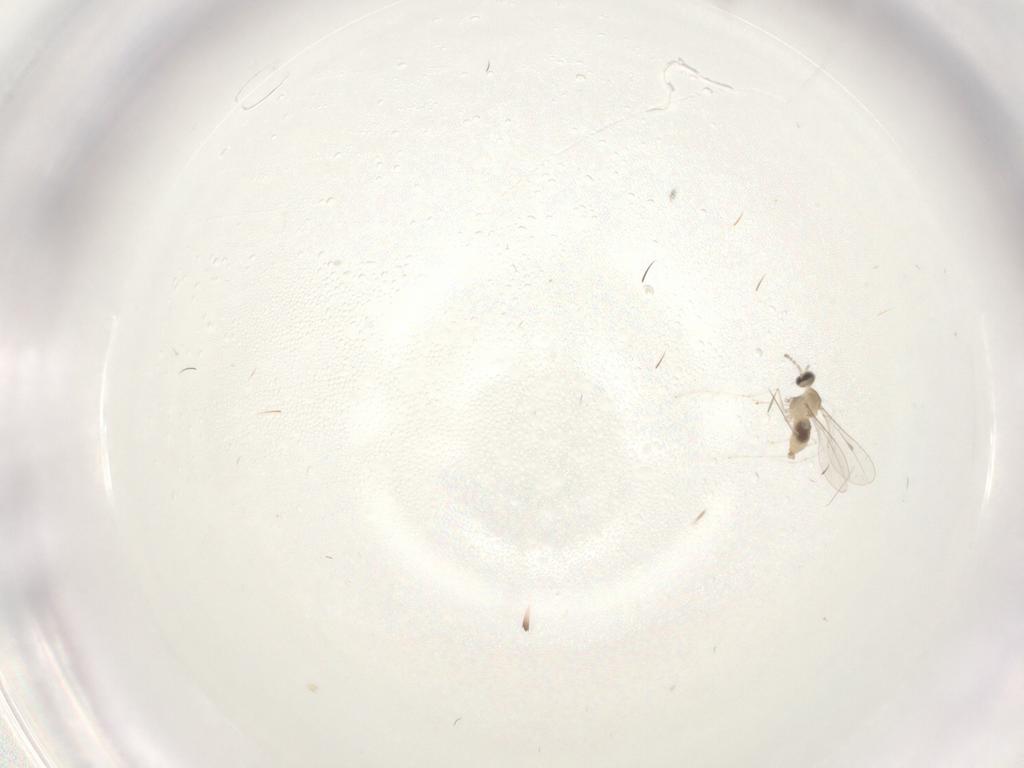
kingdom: Animalia
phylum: Arthropoda
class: Insecta
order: Diptera
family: Cecidomyiidae
